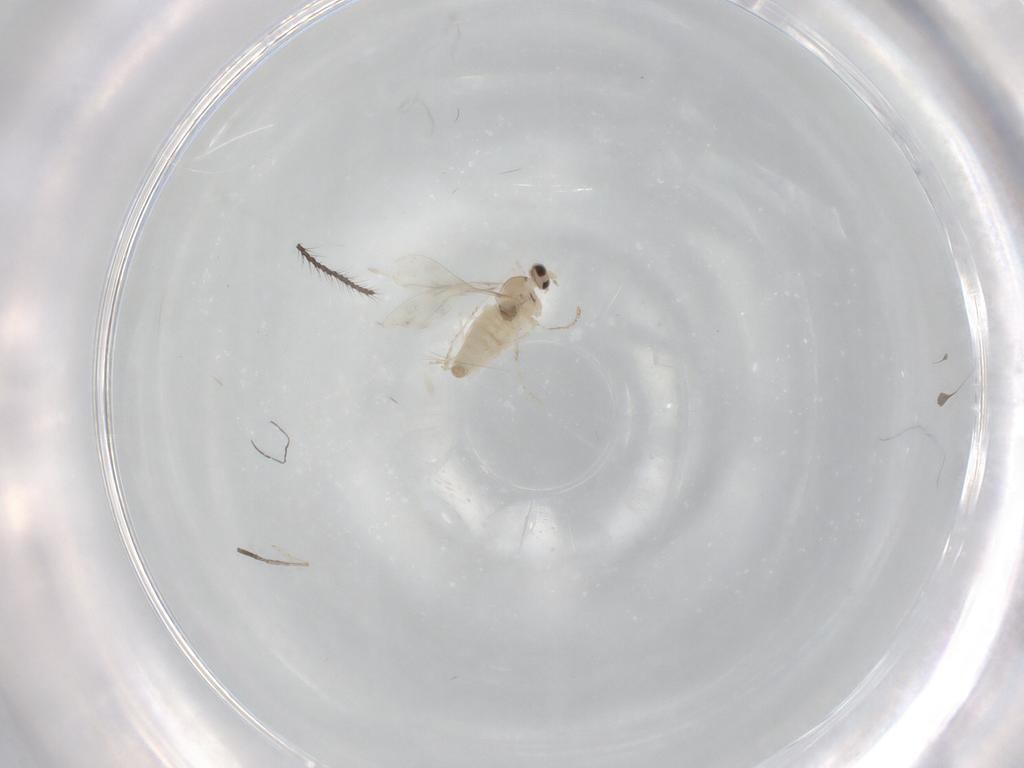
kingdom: Animalia
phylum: Arthropoda
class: Insecta
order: Diptera
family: Cecidomyiidae
